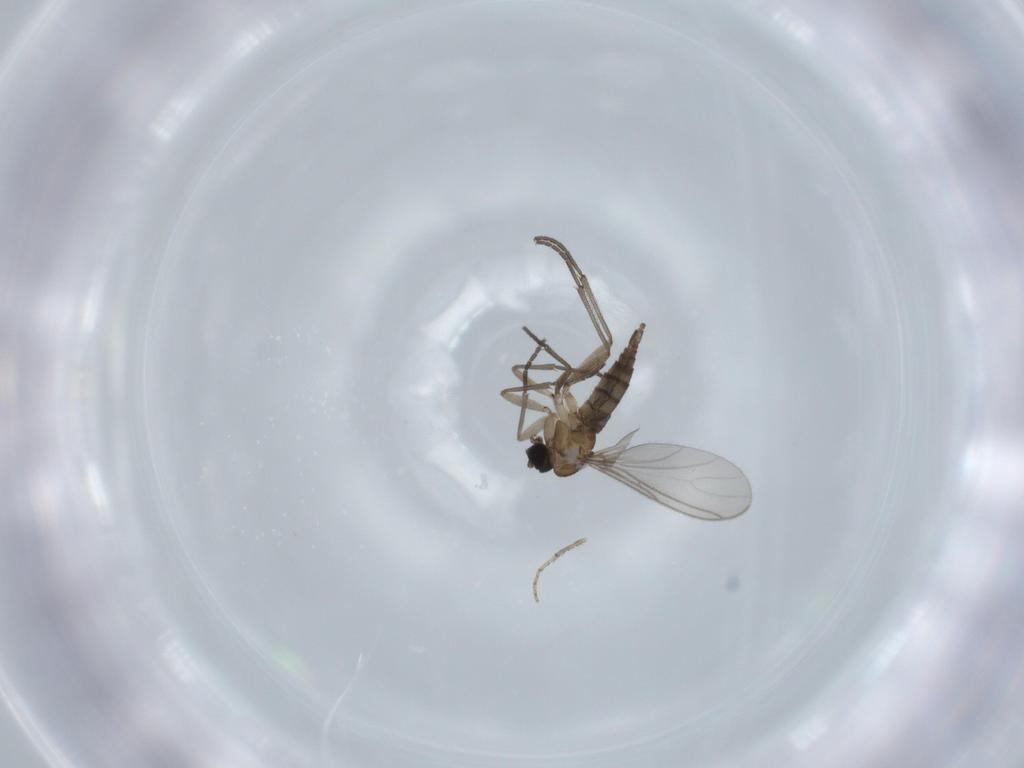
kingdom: Animalia
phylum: Arthropoda
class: Insecta
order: Diptera
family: Sciaridae
